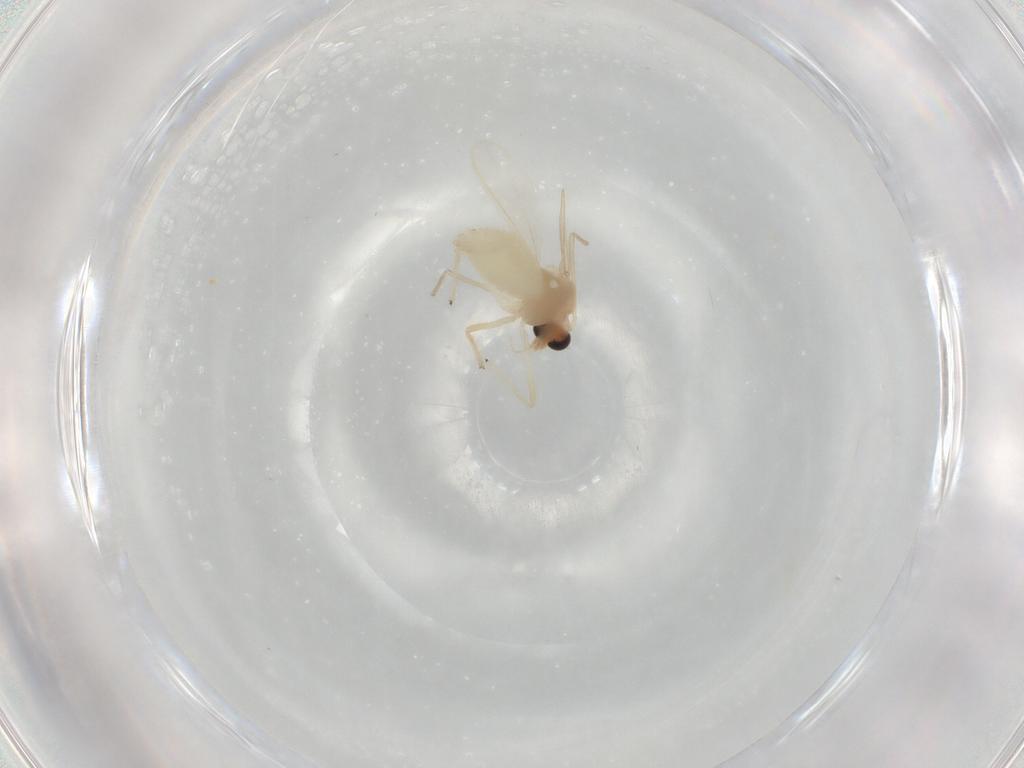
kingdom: Animalia
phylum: Arthropoda
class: Insecta
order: Diptera
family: Chironomidae
